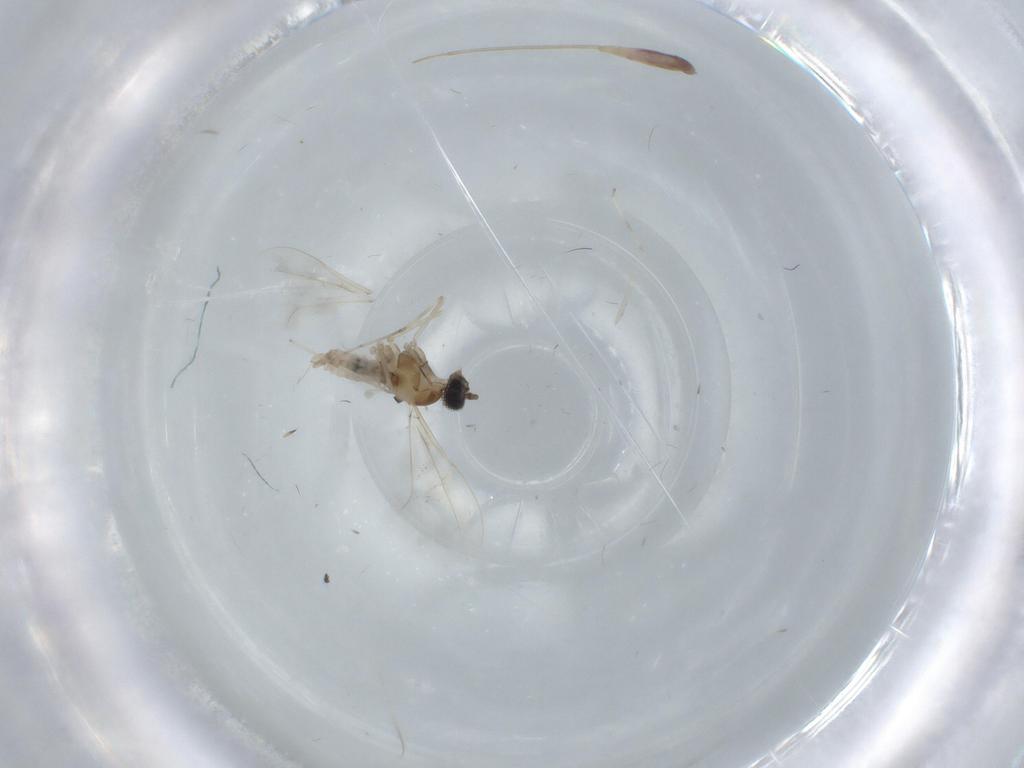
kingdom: Animalia
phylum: Arthropoda
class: Insecta
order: Diptera
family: Cecidomyiidae
